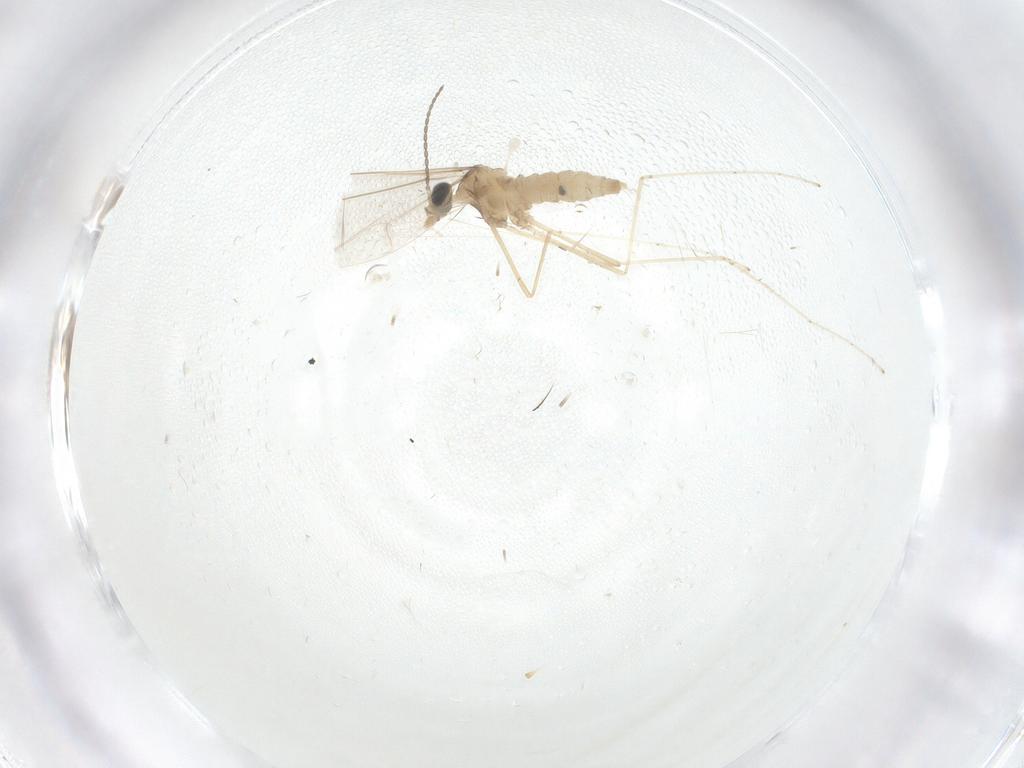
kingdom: Animalia
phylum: Arthropoda
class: Insecta
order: Diptera
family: Cecidomyiidae
